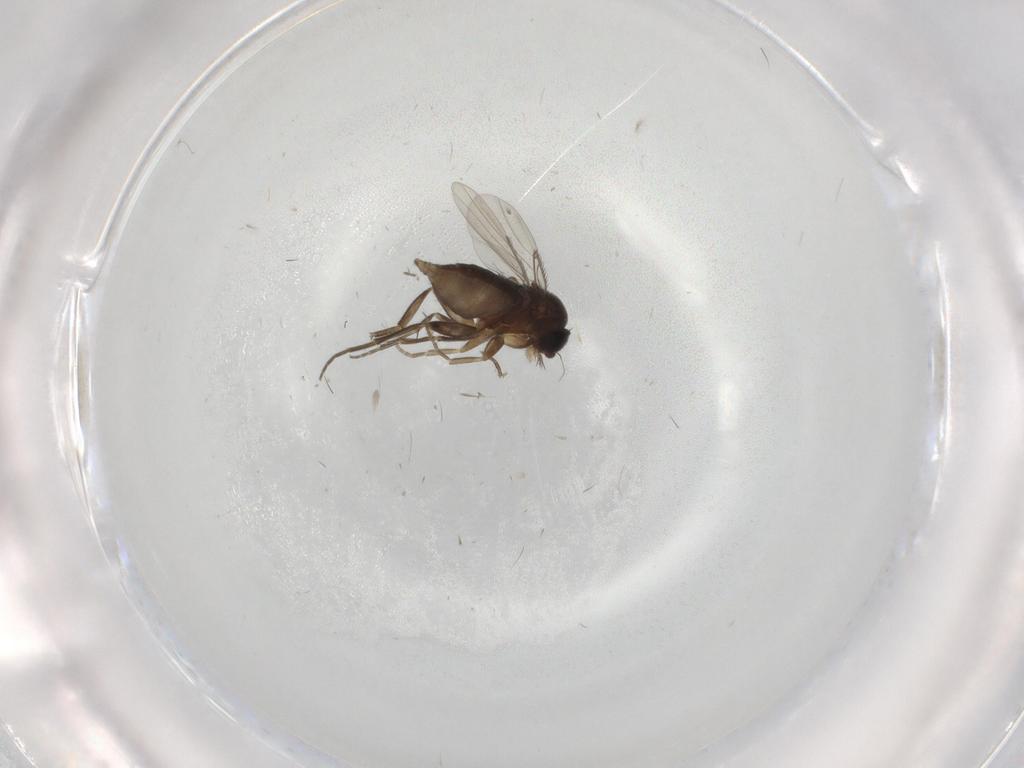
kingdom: Animalia
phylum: Arthropoda
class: Insecta
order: Diptera
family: Phoridae
